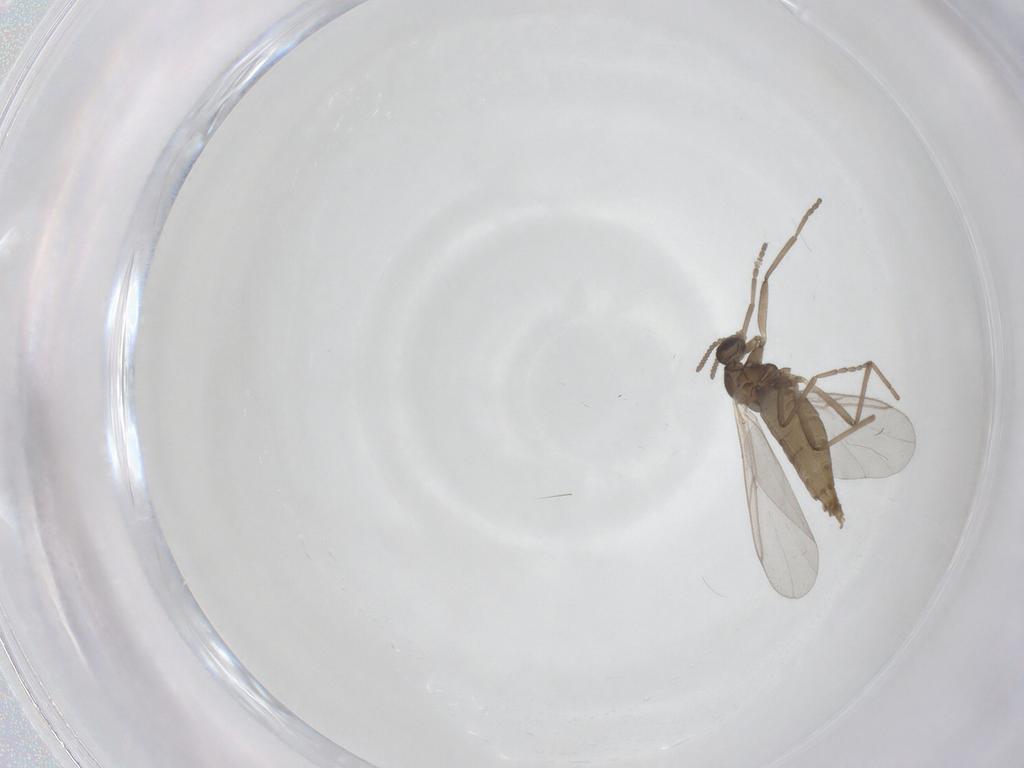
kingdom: Animalia
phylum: Arthropoda
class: Insecta
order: Diptera
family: Cecidomyiidae
